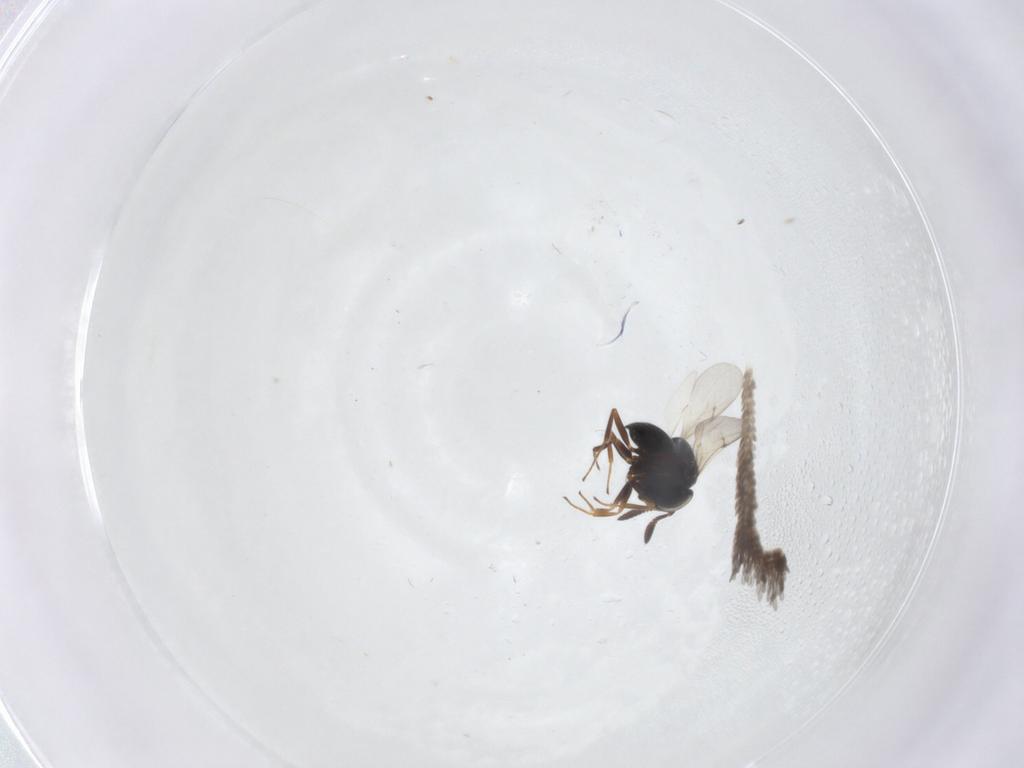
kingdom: Animalia
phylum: Arthropoda
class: Insecta
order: Hymenoptera
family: Scelionidae
